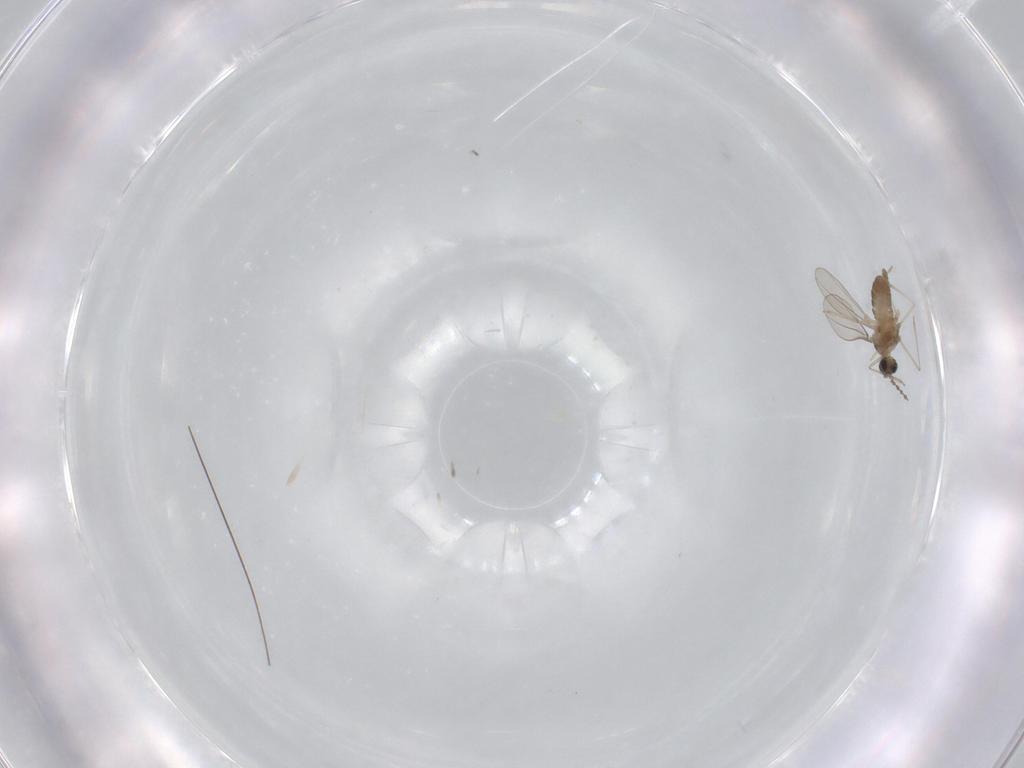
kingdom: Animalia
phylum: Arthropoda
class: Insecta
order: Diptera
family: Cecidomyiidae
